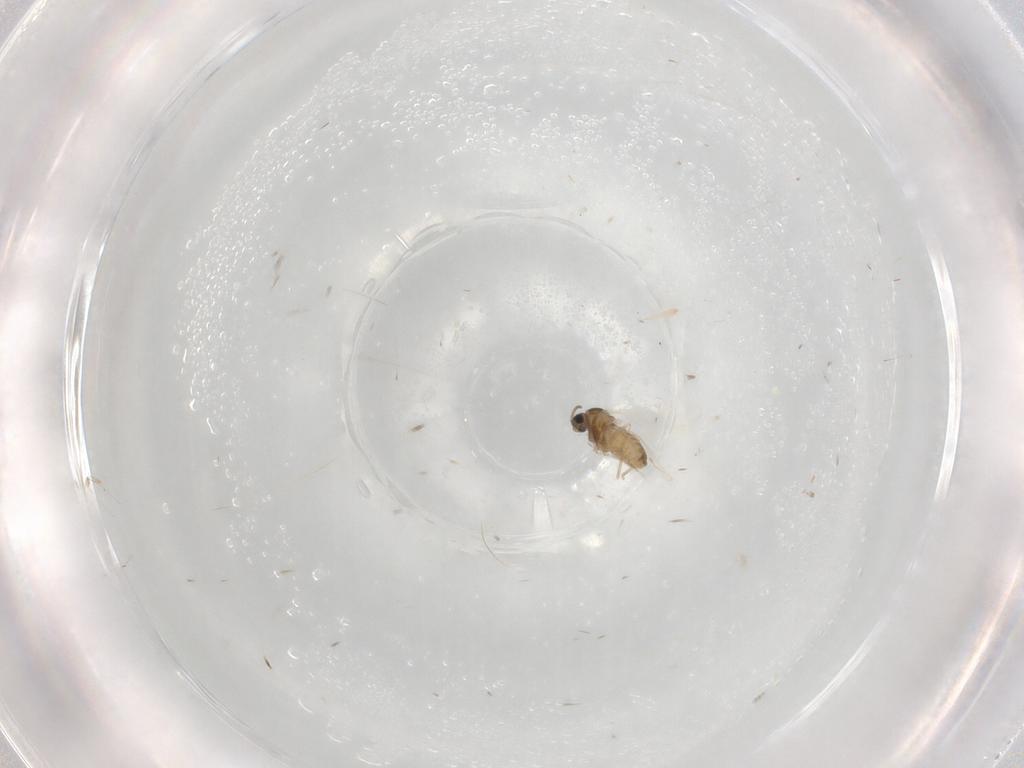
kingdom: Animalia
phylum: Arthropoda
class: Insecta
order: Diptera
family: Cecidomyiidae
